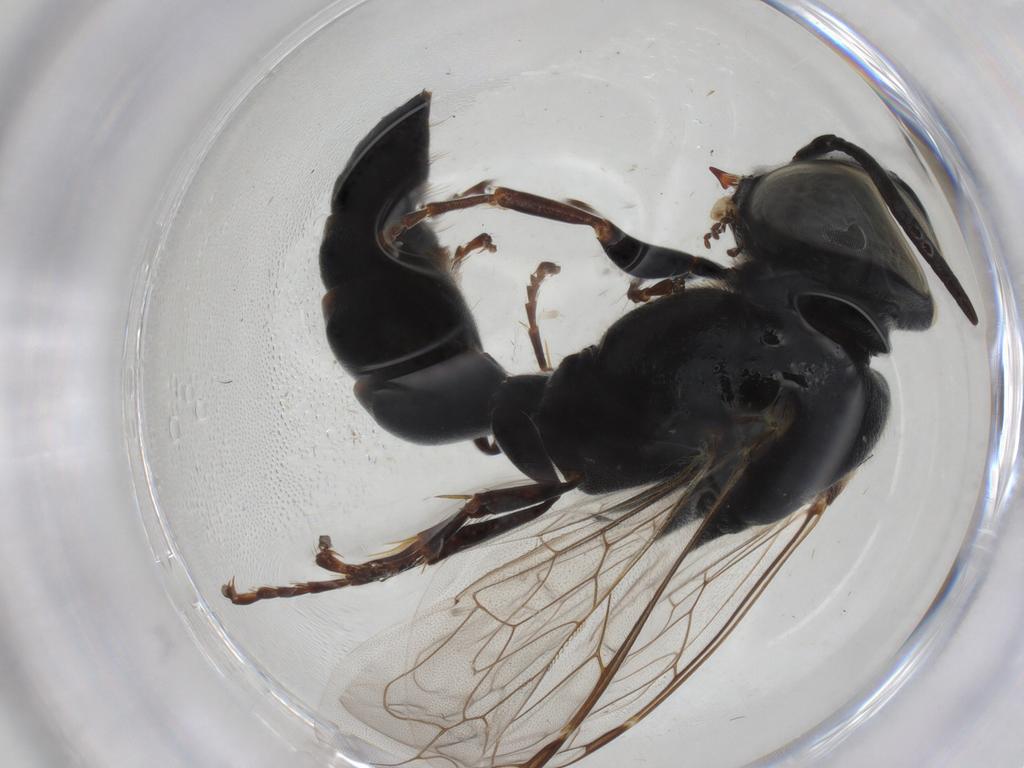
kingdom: Animalia
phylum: Arthropoda
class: Insecta
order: Hymenoptera
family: Crabronidae
